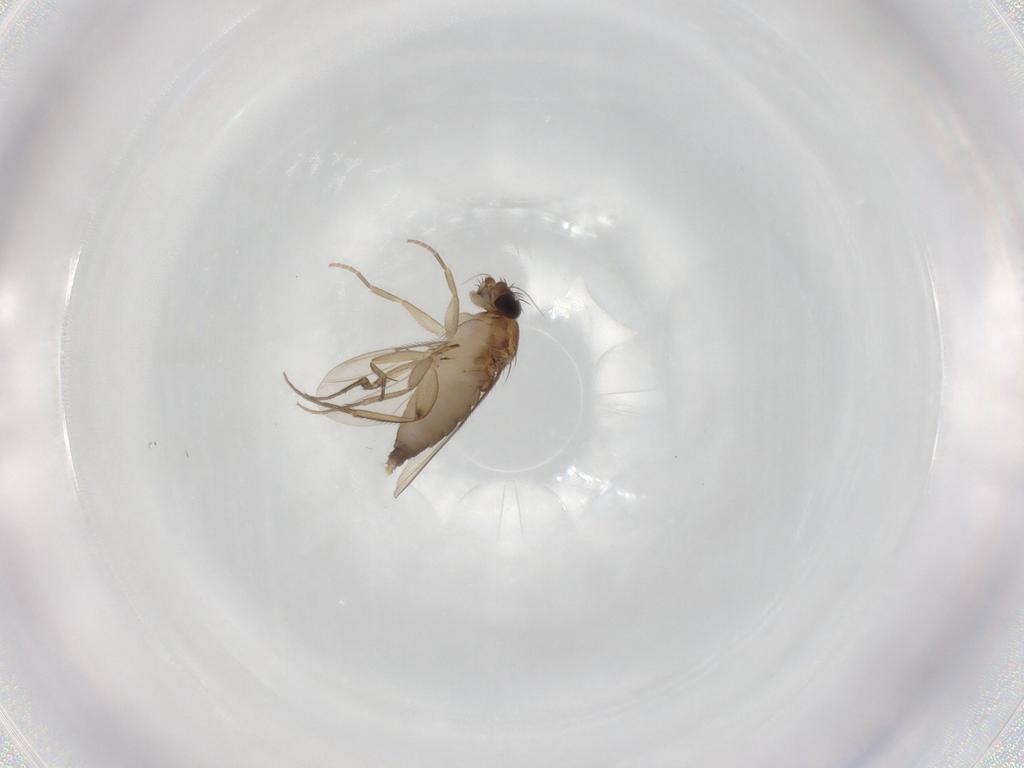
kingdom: Animalia
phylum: Arthropoda
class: Insecta
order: Diptera
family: Phoridae
